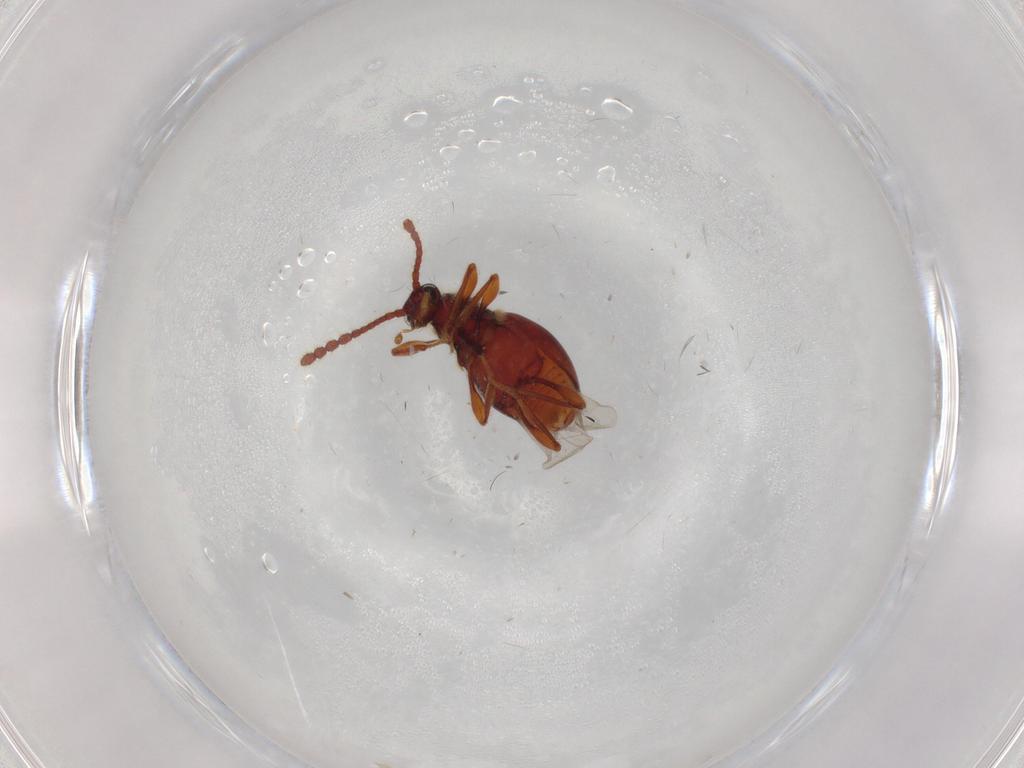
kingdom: Animalia
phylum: Arthropoda
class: Insecta
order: Coleoptera
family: Staphylinidae
